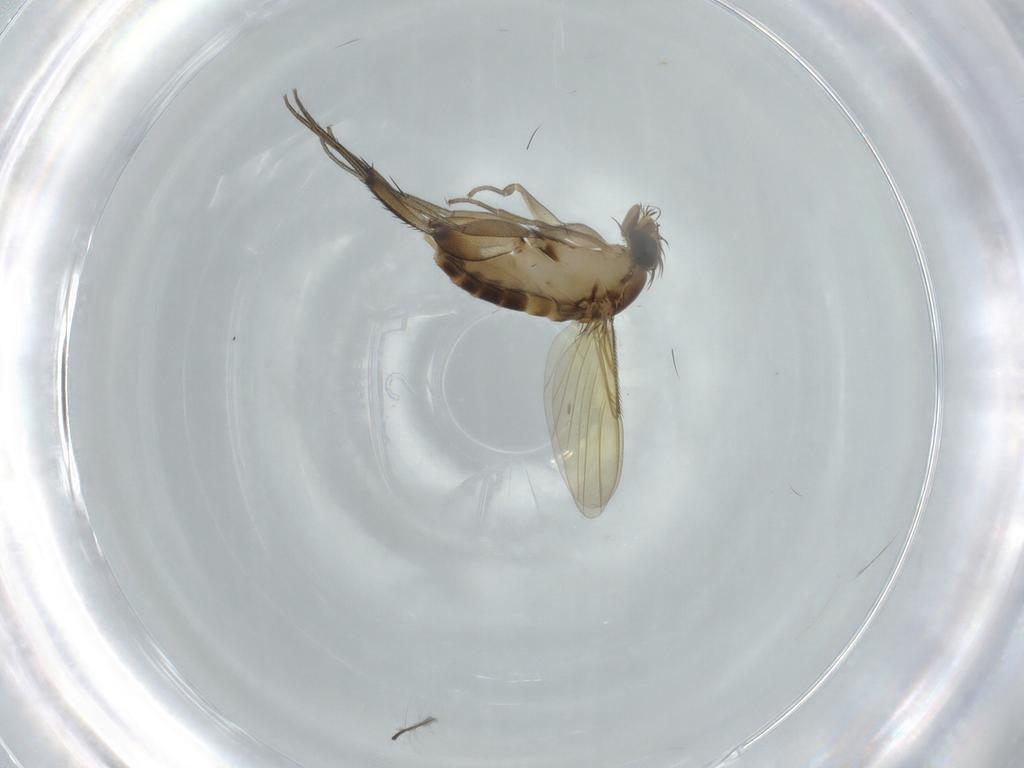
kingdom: Animalia
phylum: Arthropoda
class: Insecta
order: Diptera
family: Phoridae
